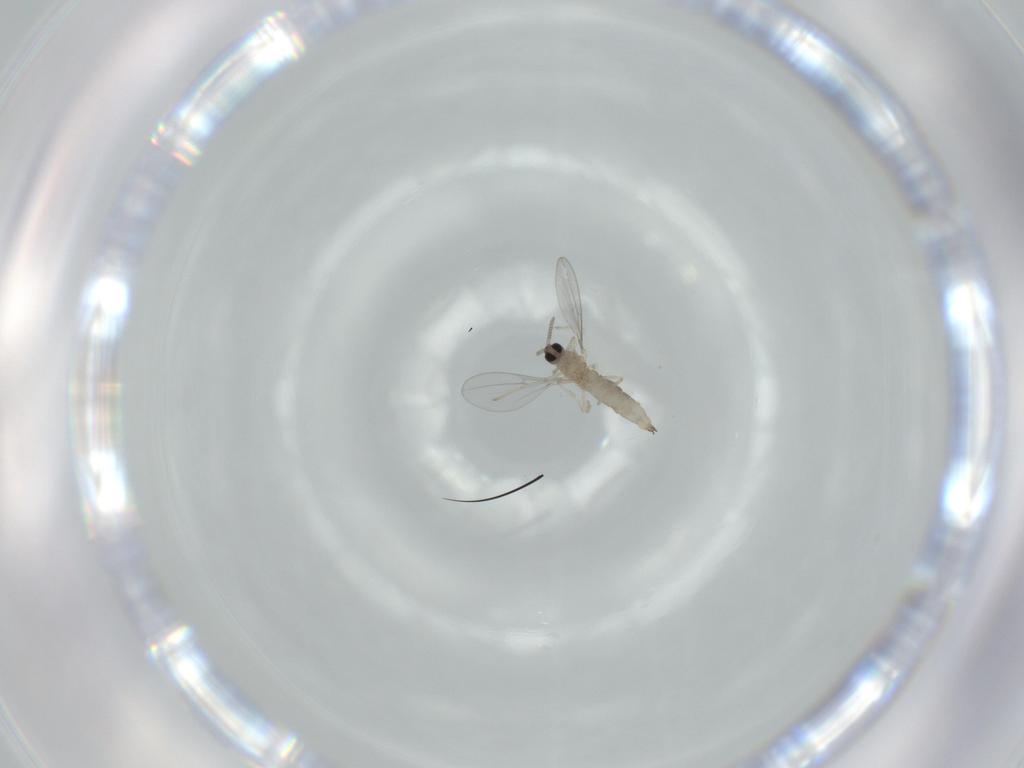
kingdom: Animalia
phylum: Arthropoda
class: Insecta
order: Diptera
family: Cecidomyiidae
